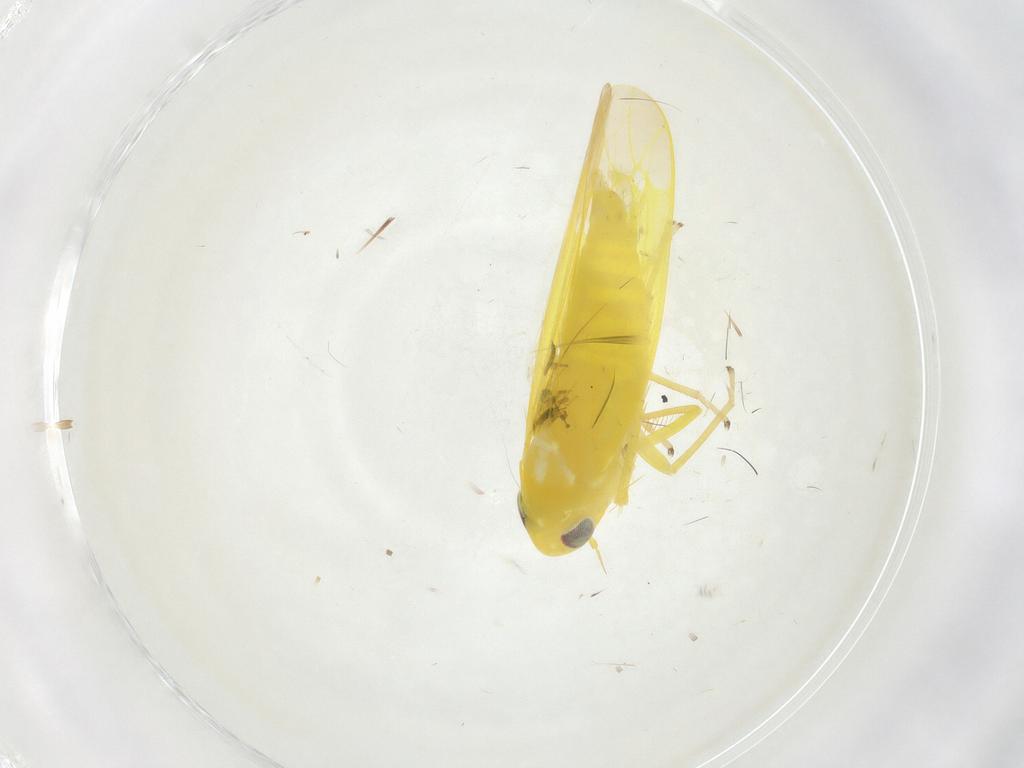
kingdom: Animalia
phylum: Arthropoda
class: Insecta
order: Hemiptera
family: Cicadellidae
